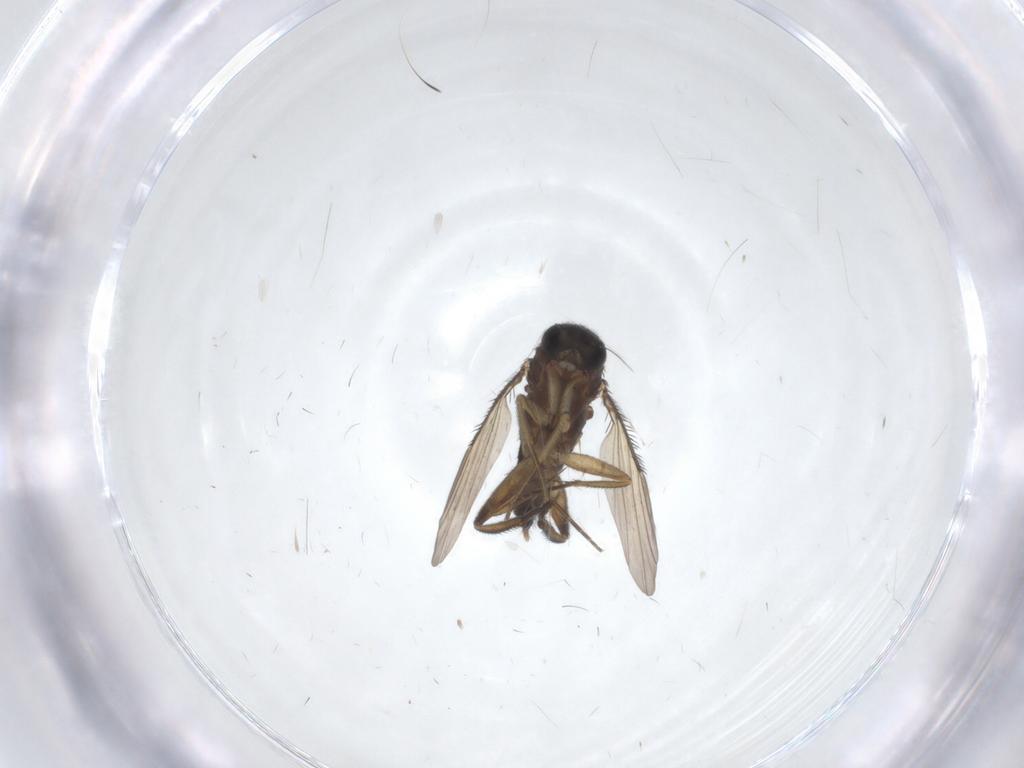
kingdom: Animalia
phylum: Arthropoda
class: Insecta
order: Diptera
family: Phoridae
